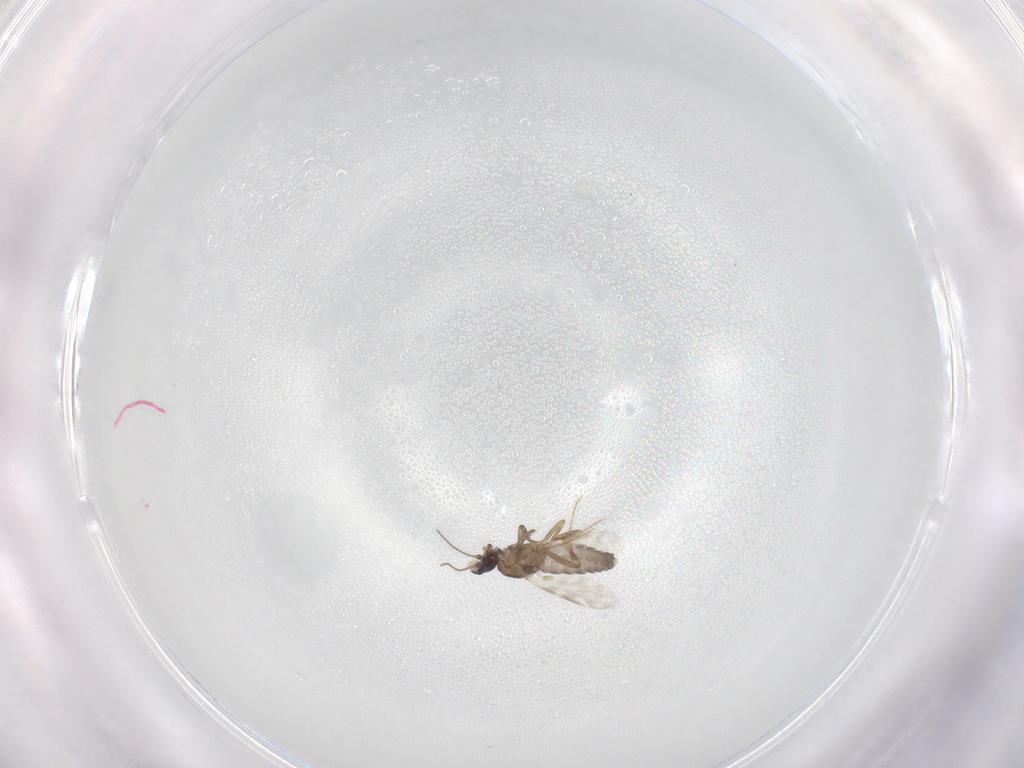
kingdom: Animalia
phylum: Arthropoda
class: Insecta
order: Diptera
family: Ceratopogonidae
